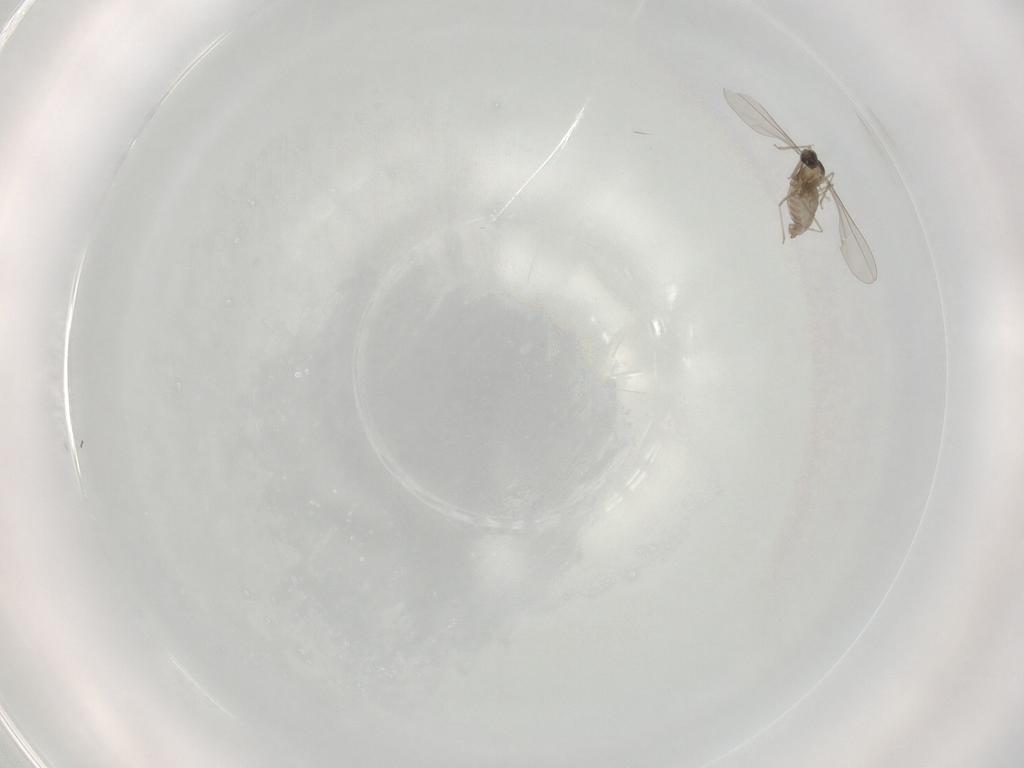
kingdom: Animalia
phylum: Arthropoda
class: Insecta
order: Diptera
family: Cecidomyiidae
